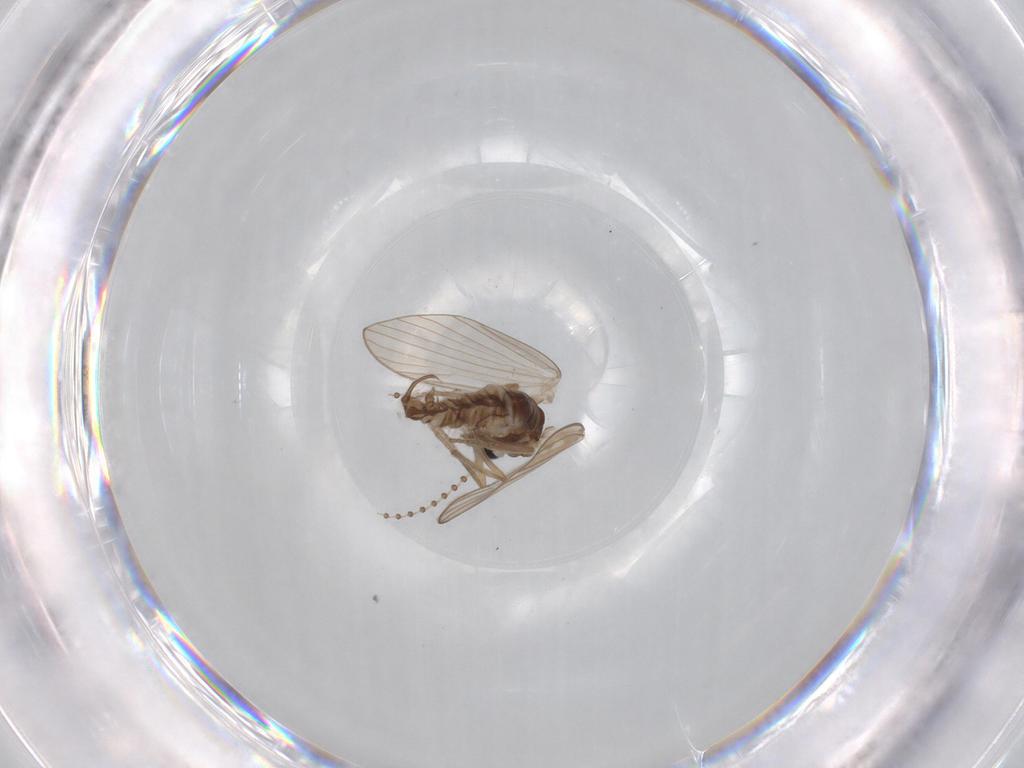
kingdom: Animalia
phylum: Arthropoda
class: Insecta
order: Diptera
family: Psychodidae
